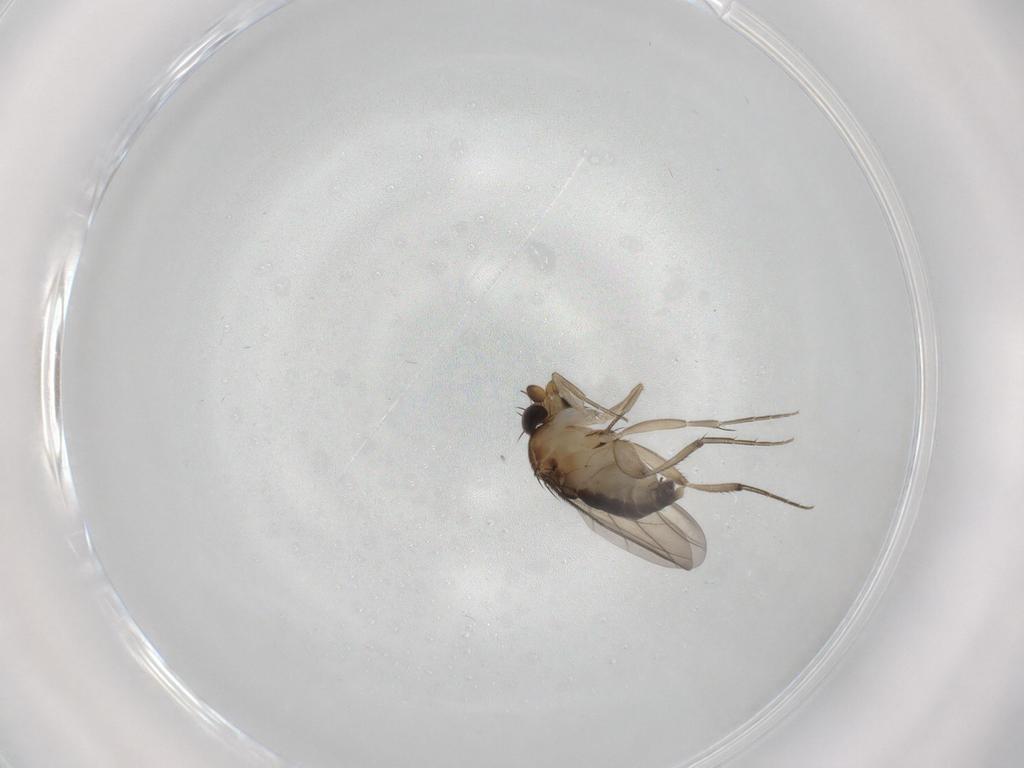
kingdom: Animalia
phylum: Arthropoda
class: Insecta
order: Diptera
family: Phoridae
